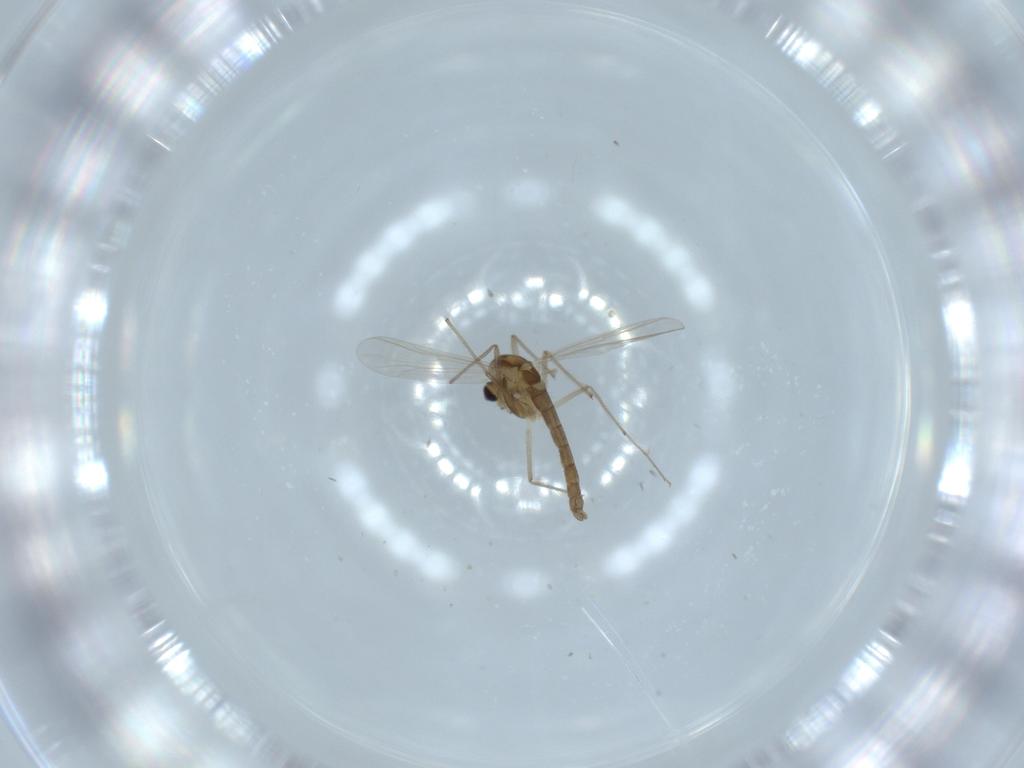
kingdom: Animalia
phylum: Arthropoda
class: Insecta
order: Diptera
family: Chironomidae
